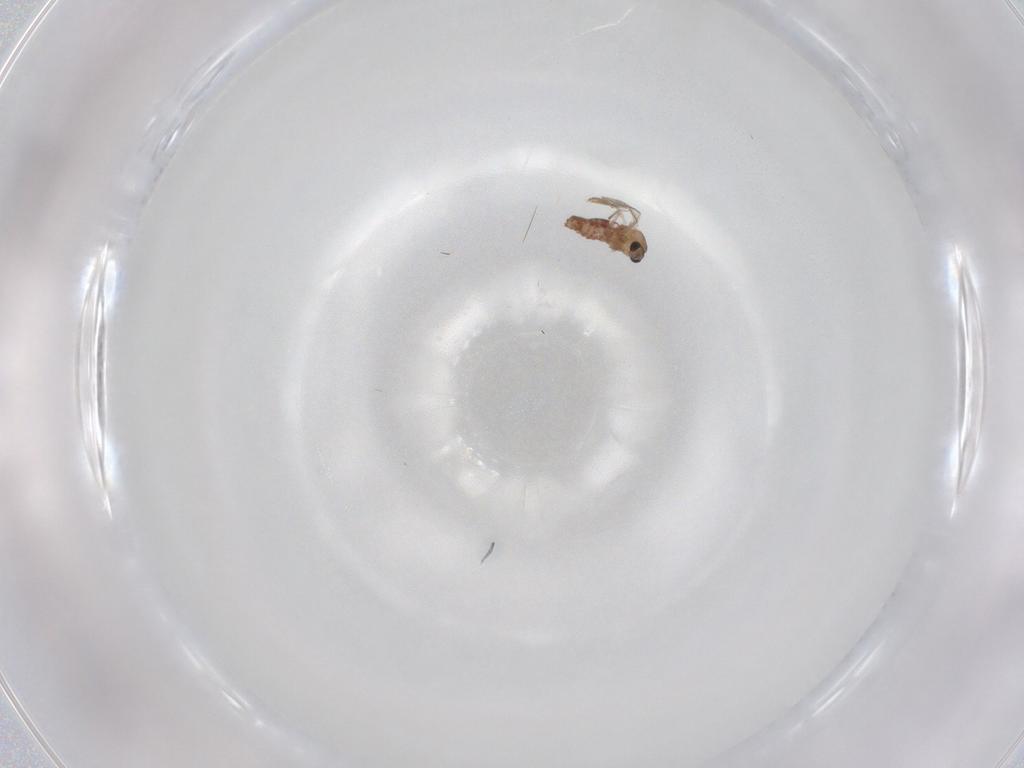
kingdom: Animalia
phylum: Arthropoda
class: Insecta
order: Diptera
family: Chironomidae
